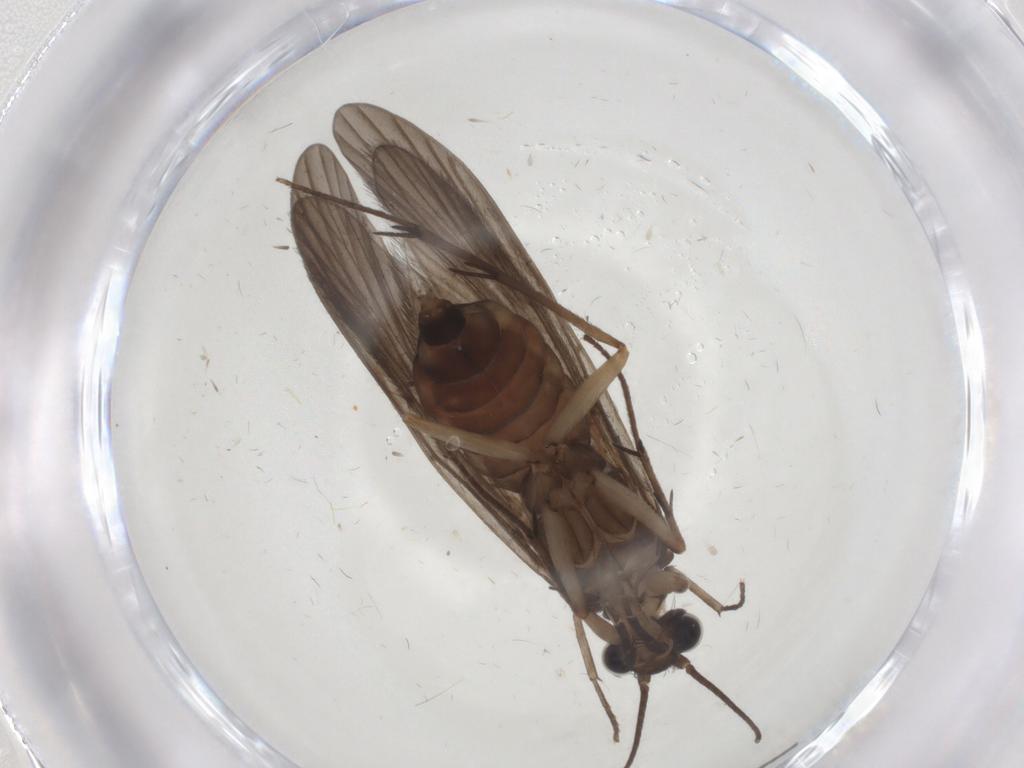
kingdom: Animalia
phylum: Arthropoda
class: Insecta
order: Trichoptera
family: Philopotamidae
